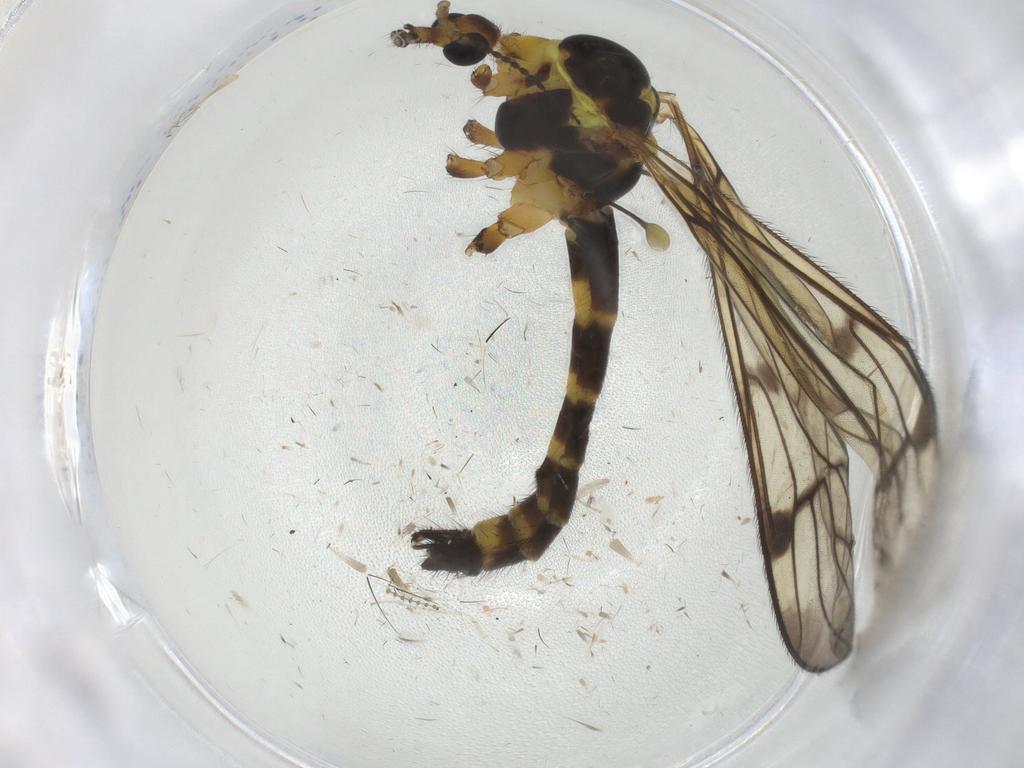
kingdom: Animalia
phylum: Arthropoda
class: Insecta
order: Diptera
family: Limoniidae
